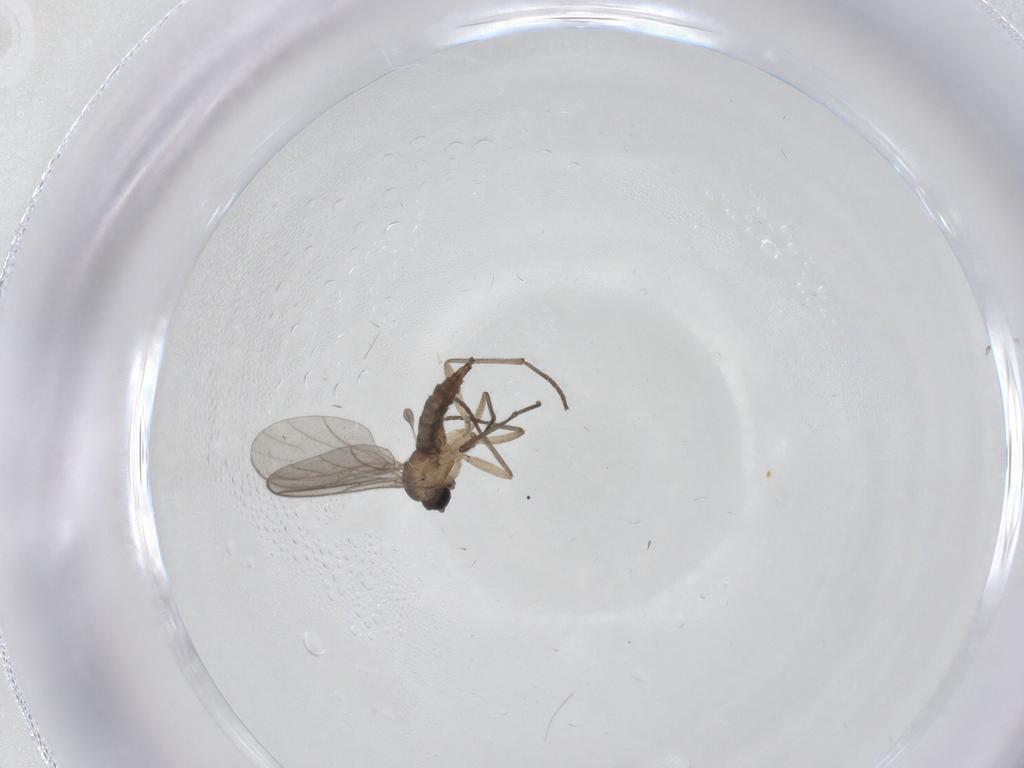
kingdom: Animalia
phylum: Arthropoda
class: Insecta
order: Diptera
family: Sciaridae
